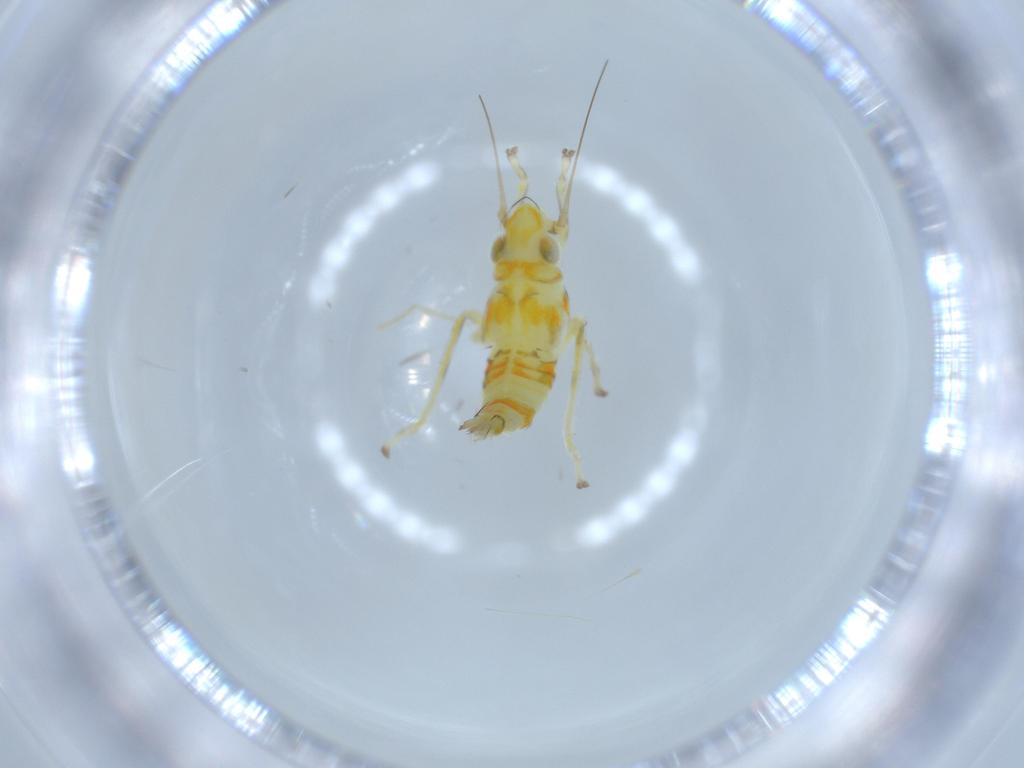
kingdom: Animalia
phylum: Arthropoda
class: Insecta
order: Hemiptera
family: Cicadellidae
